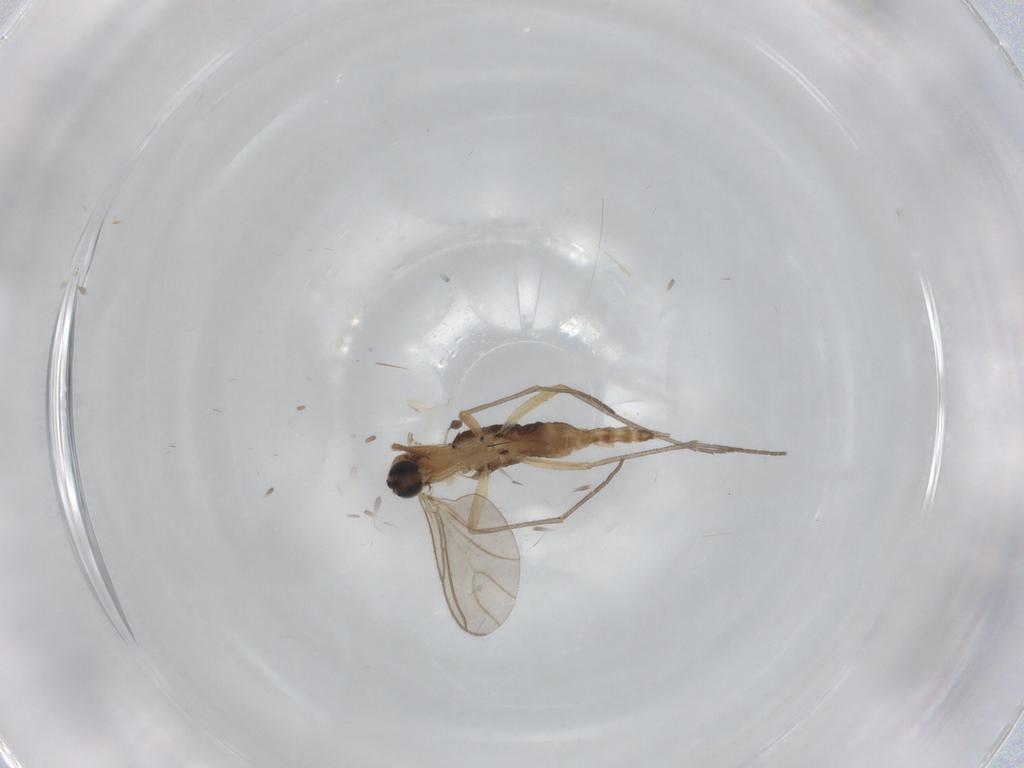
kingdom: Animalia
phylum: Arthropoda
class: Insecta
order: Diptera
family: Sciaridae
